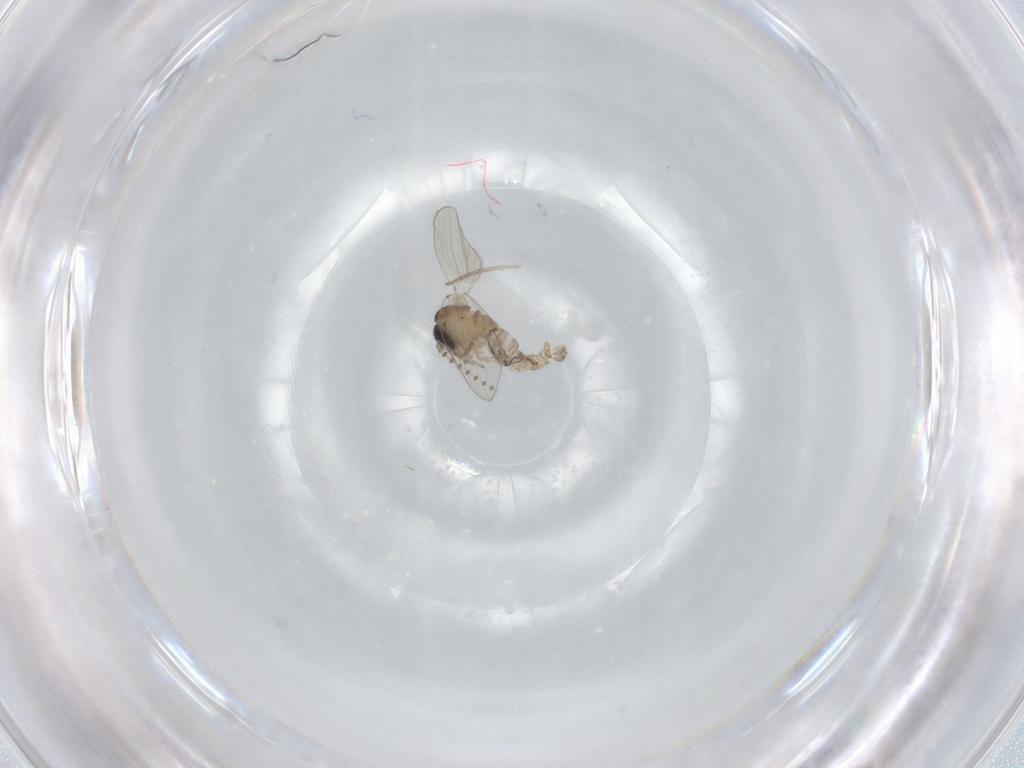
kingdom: Animalia
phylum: Arthropoda
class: Insecta
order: Diptera
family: Psychodidae
